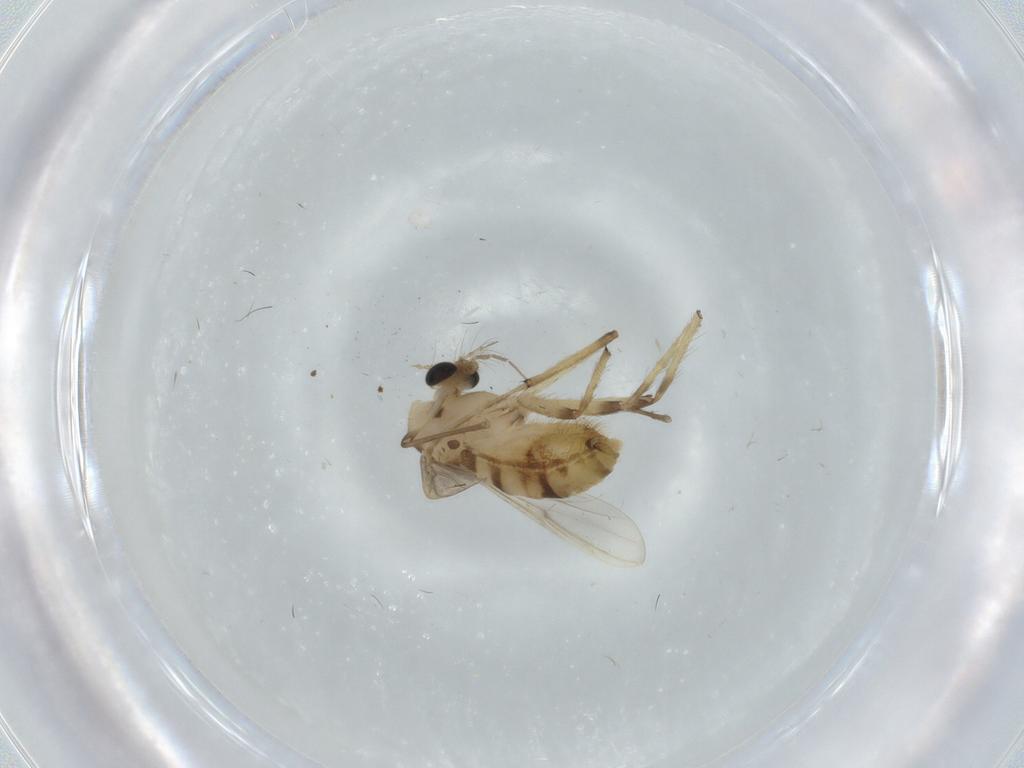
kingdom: Animalia
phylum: Arthropoda
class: Insecta
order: Diptera
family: Chironomidae
